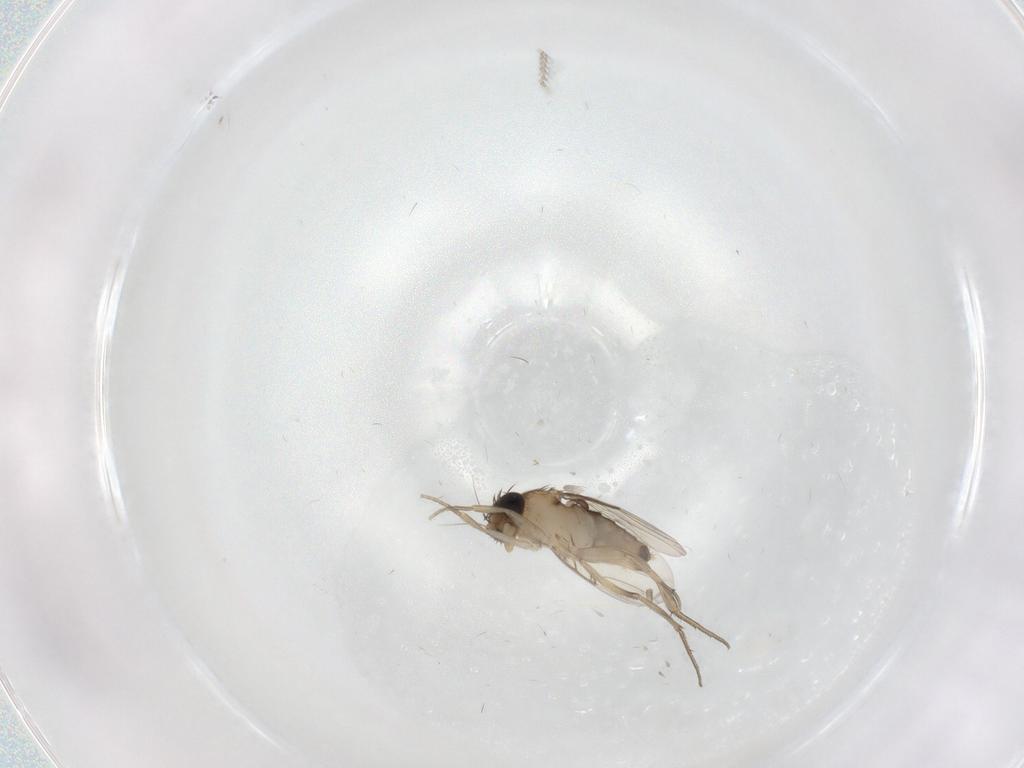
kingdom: Animalia
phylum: Arthropoda
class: Insecta
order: Diptera
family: Phoridae
